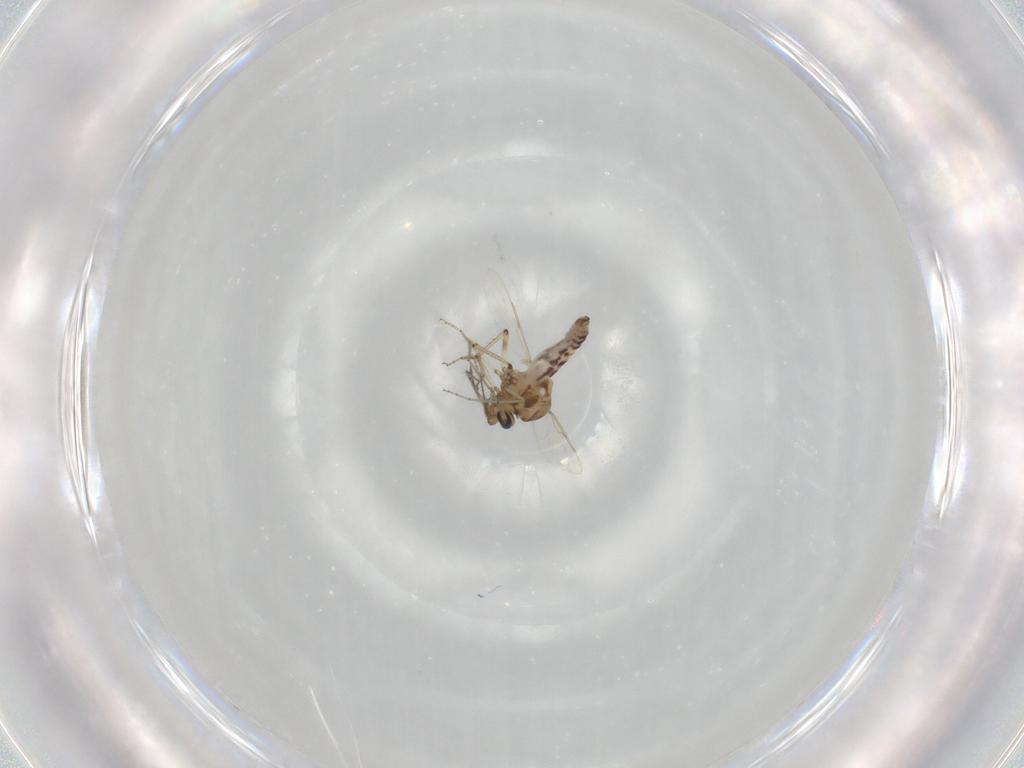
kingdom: Animalia
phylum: Arthropoda
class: Insecta
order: Diptera
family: Ceratopogonidae
